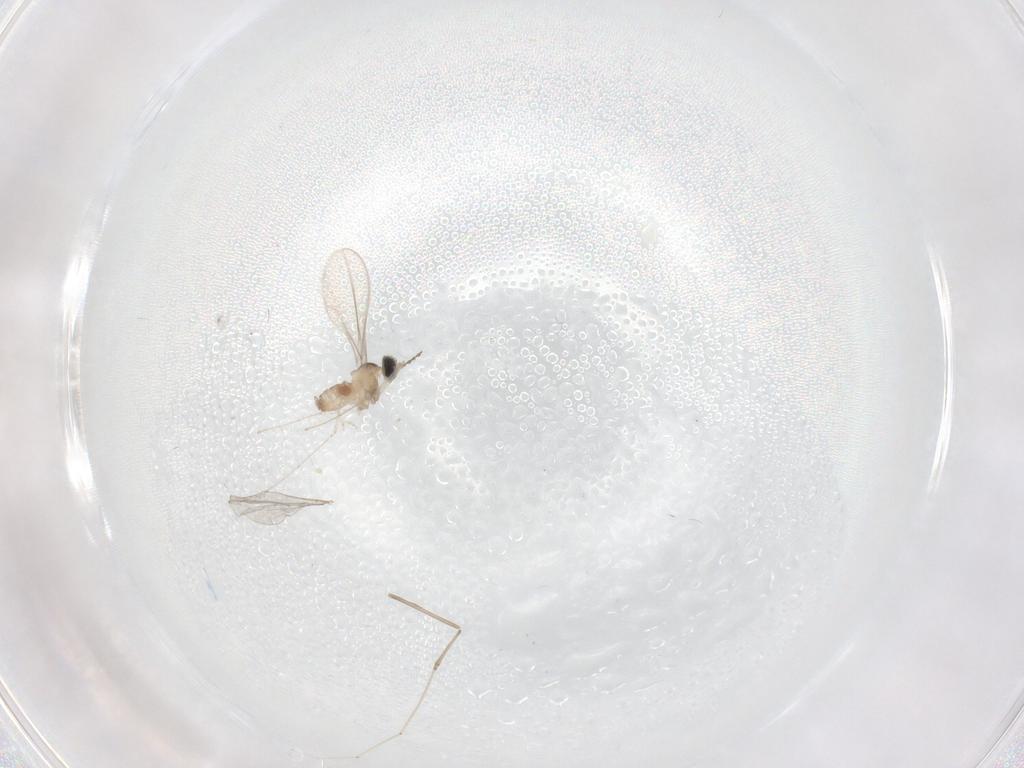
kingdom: Animalia
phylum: Arthropoda
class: Insecta
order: Diptera
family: Cecidomyiidae
